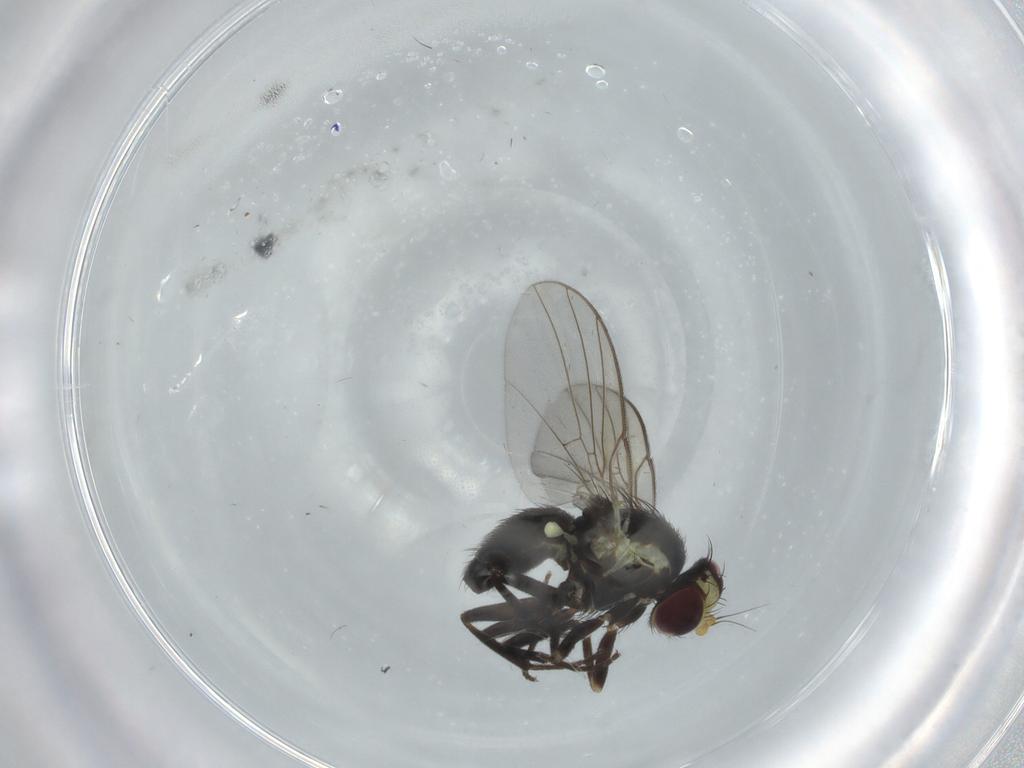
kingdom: Animalia
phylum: Arthropoda
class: Insecta
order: Diptera
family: Agromyzidae
